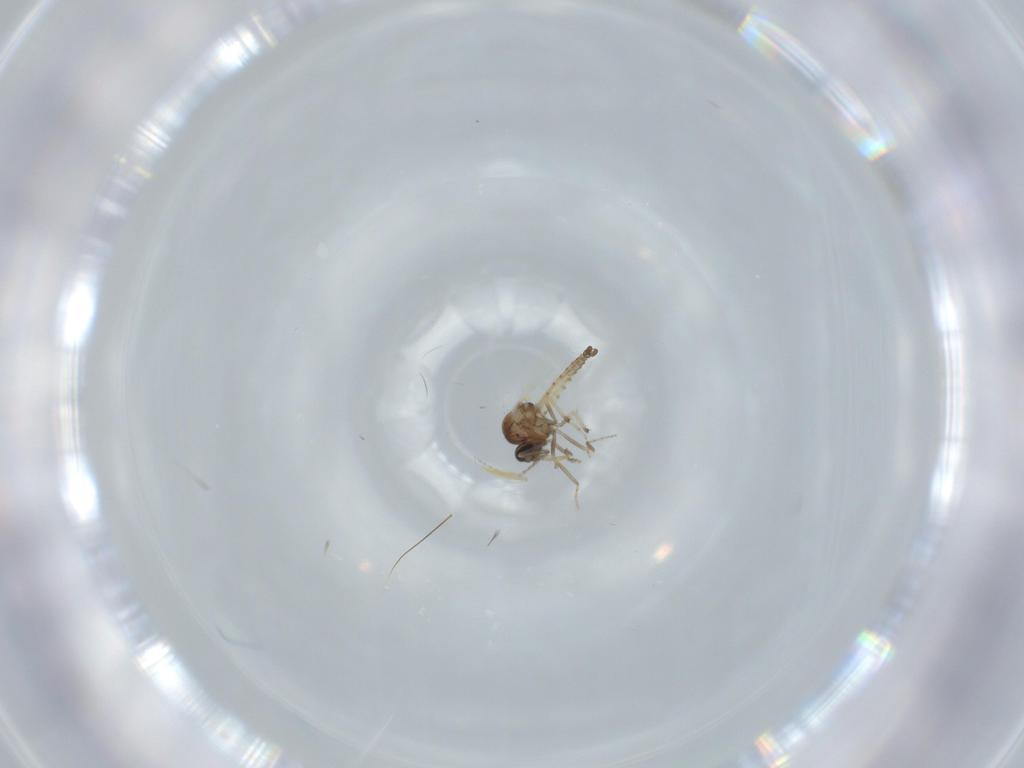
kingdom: Animalia
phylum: Arthropoda
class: Insecta
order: Diptera
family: Limoniidae
